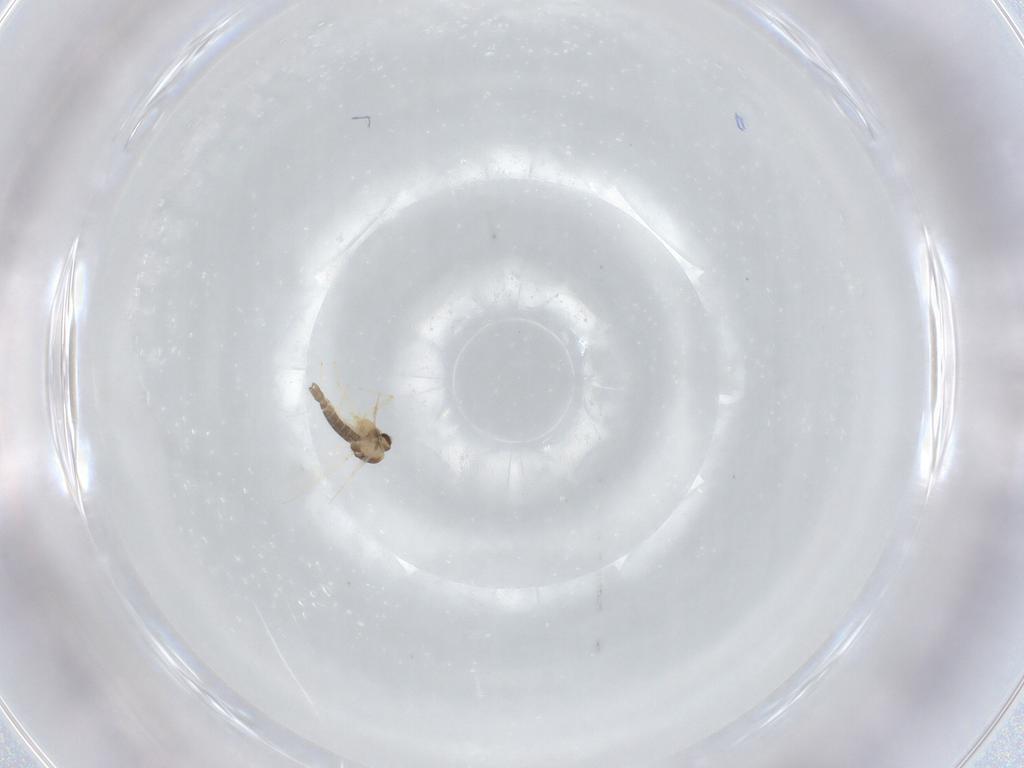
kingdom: Animalia
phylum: Arthropoda
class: Insecta
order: Diptera
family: Chironomidae
